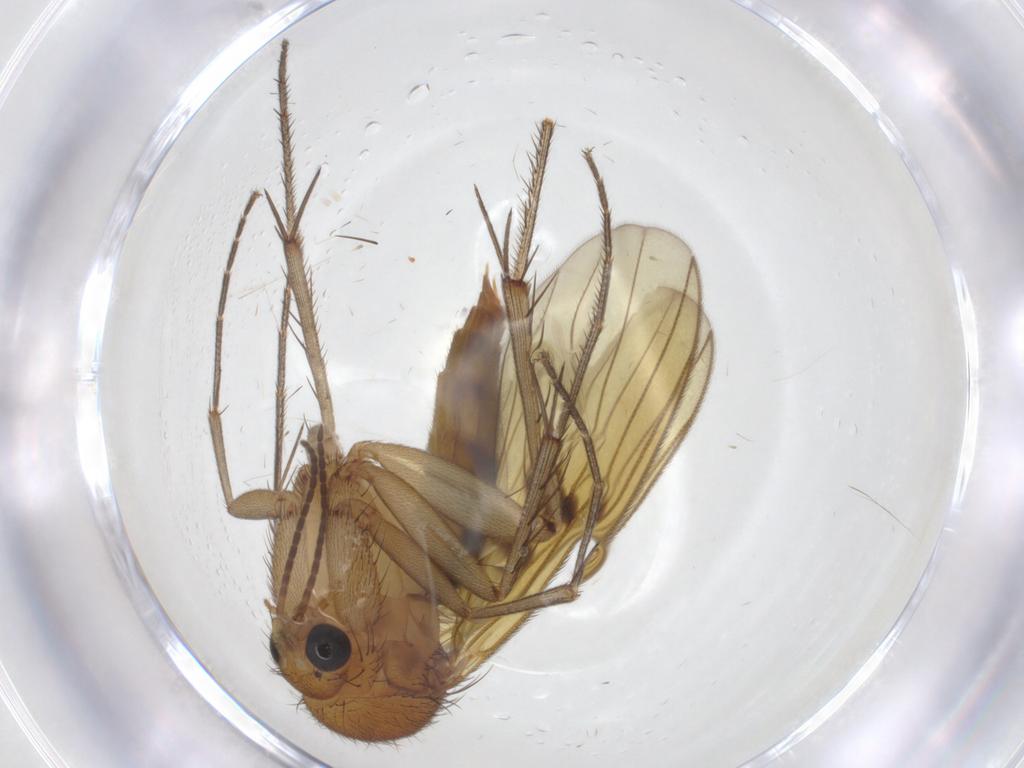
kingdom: Animalia
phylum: Arthropoda
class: Insecta
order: Diptera
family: Mycetophilidae
